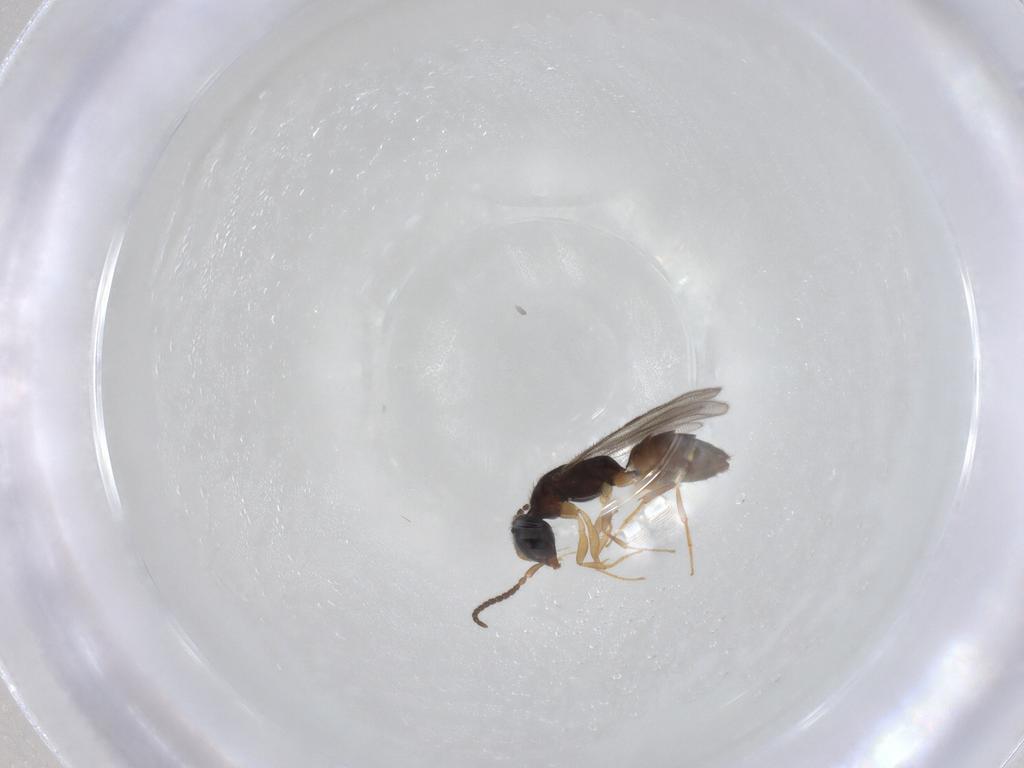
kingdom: Animalia
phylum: Arthropoda
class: Insecta
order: Hymenoptera
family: Bethylidae
